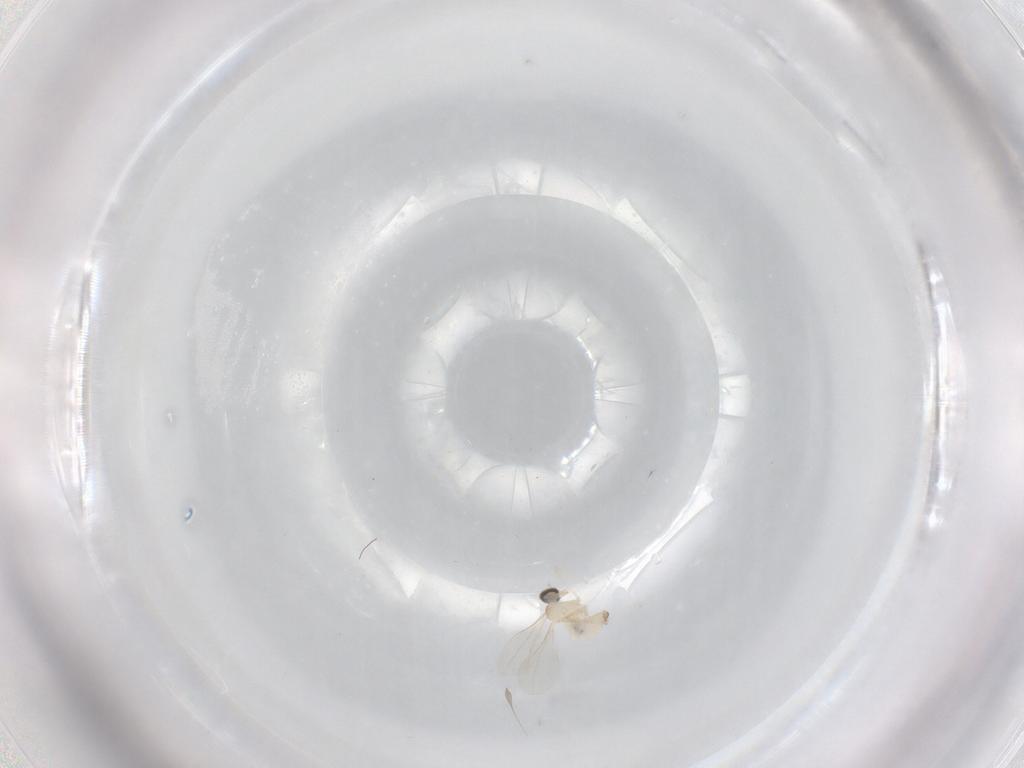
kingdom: Animalia
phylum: Arthropoda
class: Insecta
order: Diptera
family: Cecidomyiidae
